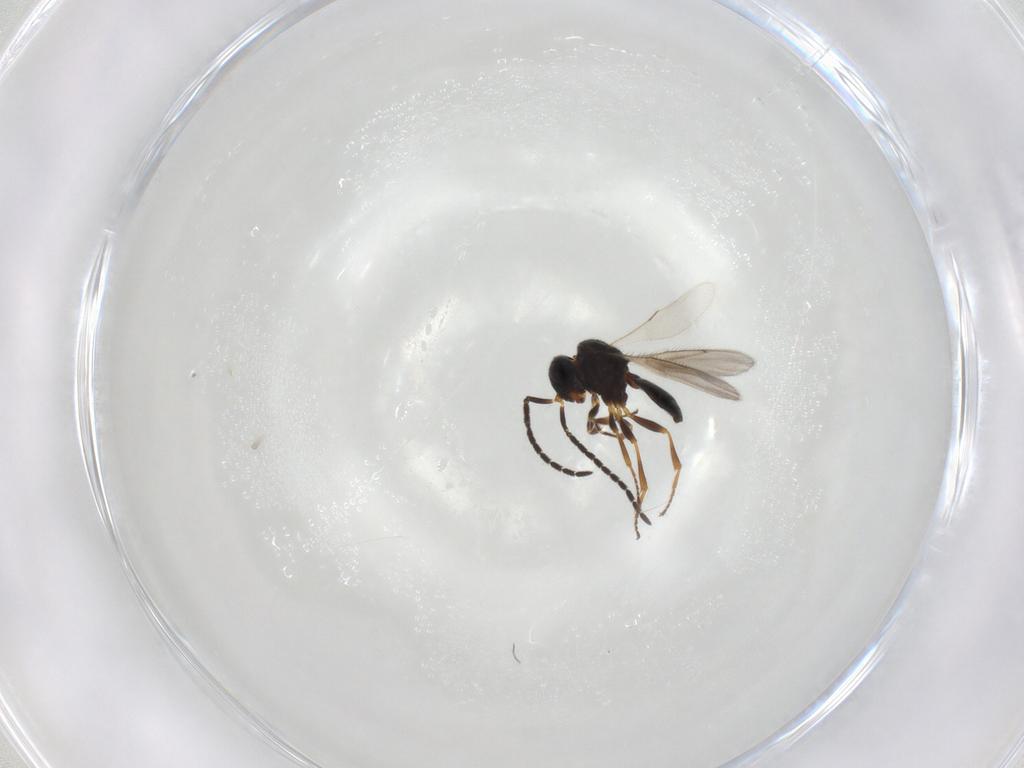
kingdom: Animalia
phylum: Arthropoda
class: Insecta
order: Hymenoptera
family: Scelionidae
